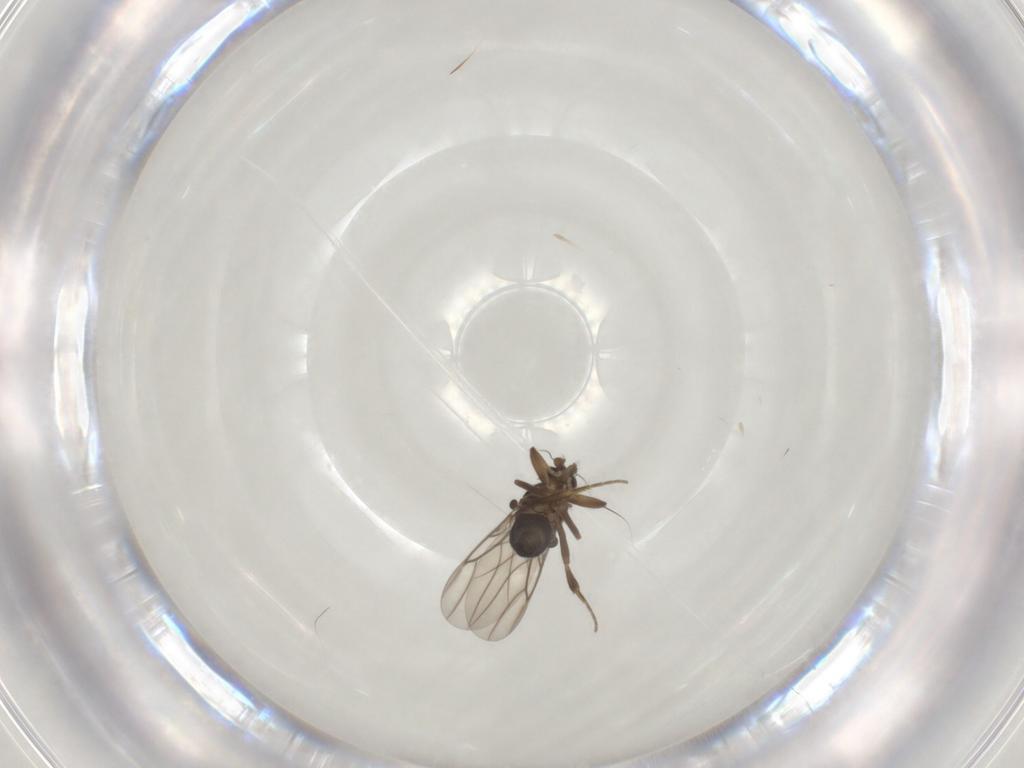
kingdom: Animalia
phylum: Arthropoda
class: Insecta
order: Diptera
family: Phoridae
